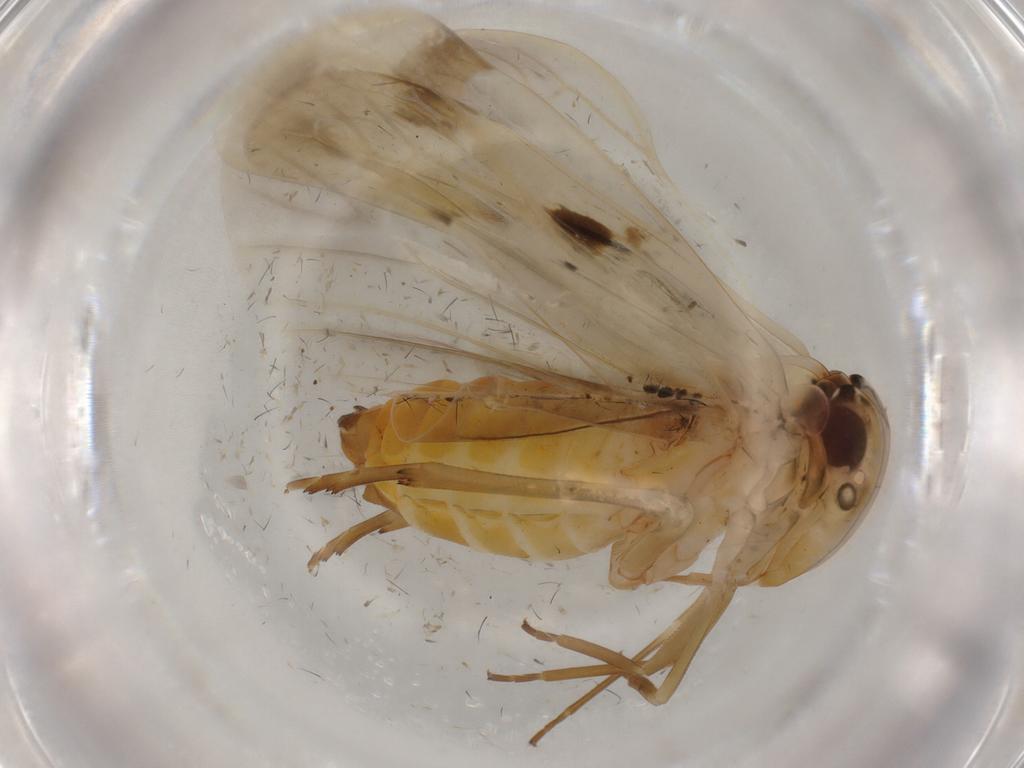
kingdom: Animalia
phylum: Arthropoda
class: Insecta
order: Hemiptera
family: Achilidae
